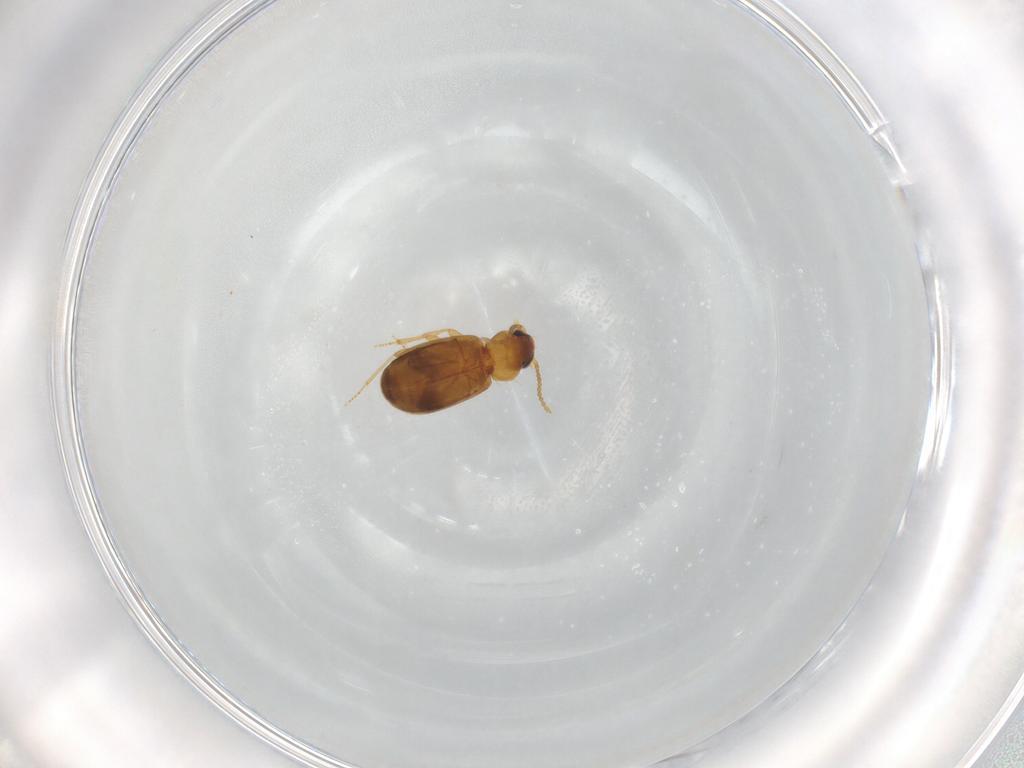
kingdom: Animalia
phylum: Arthropoda
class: Insecta
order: Coleoptera
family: Carabidae
